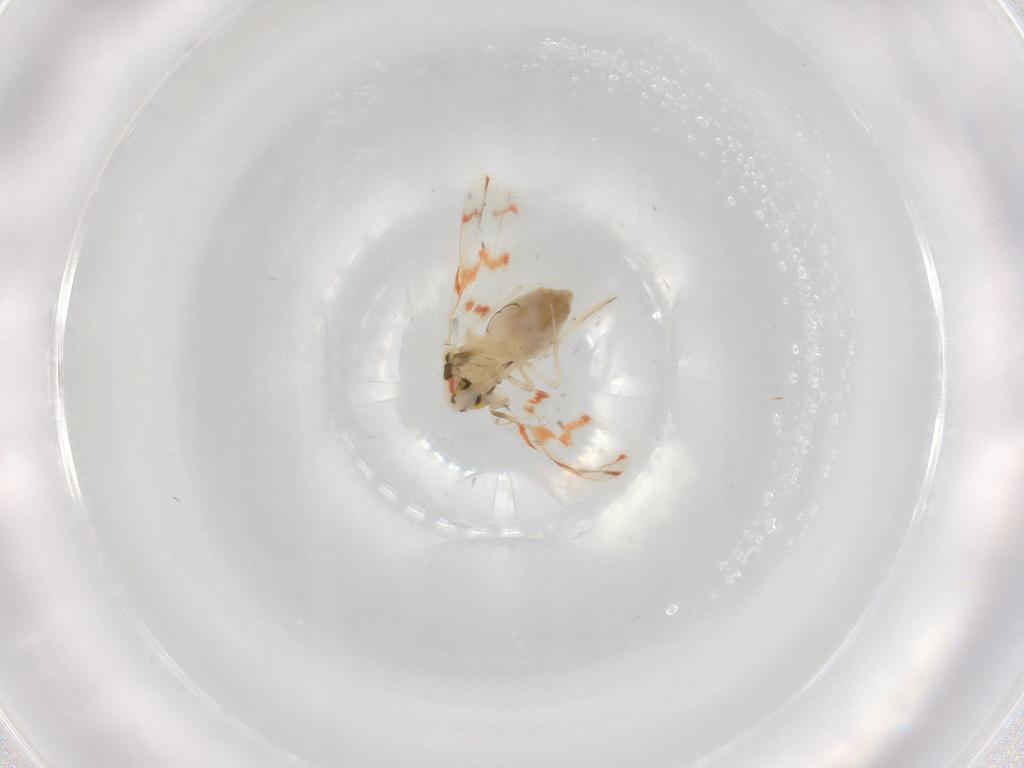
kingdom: Animalia
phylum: Arthropoda
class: Insecta
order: Hemiptera
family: Aleyrodidae
